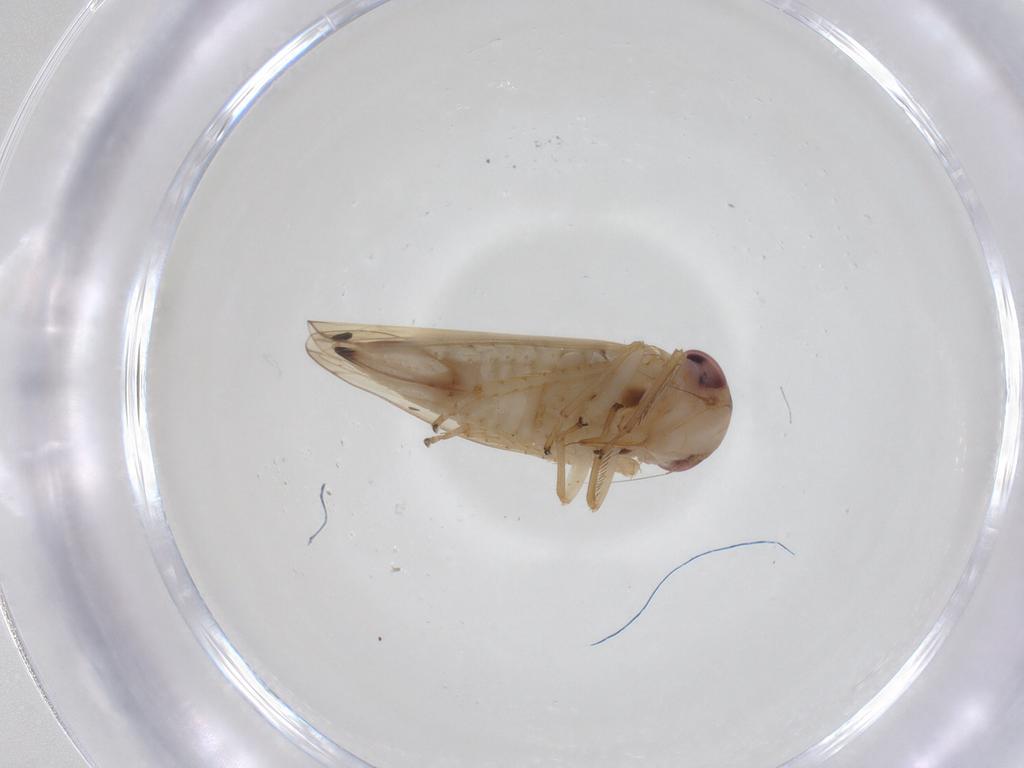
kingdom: Animalia
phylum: Arthropoda
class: Insecta
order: Hemiptera
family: Cicadellidae
